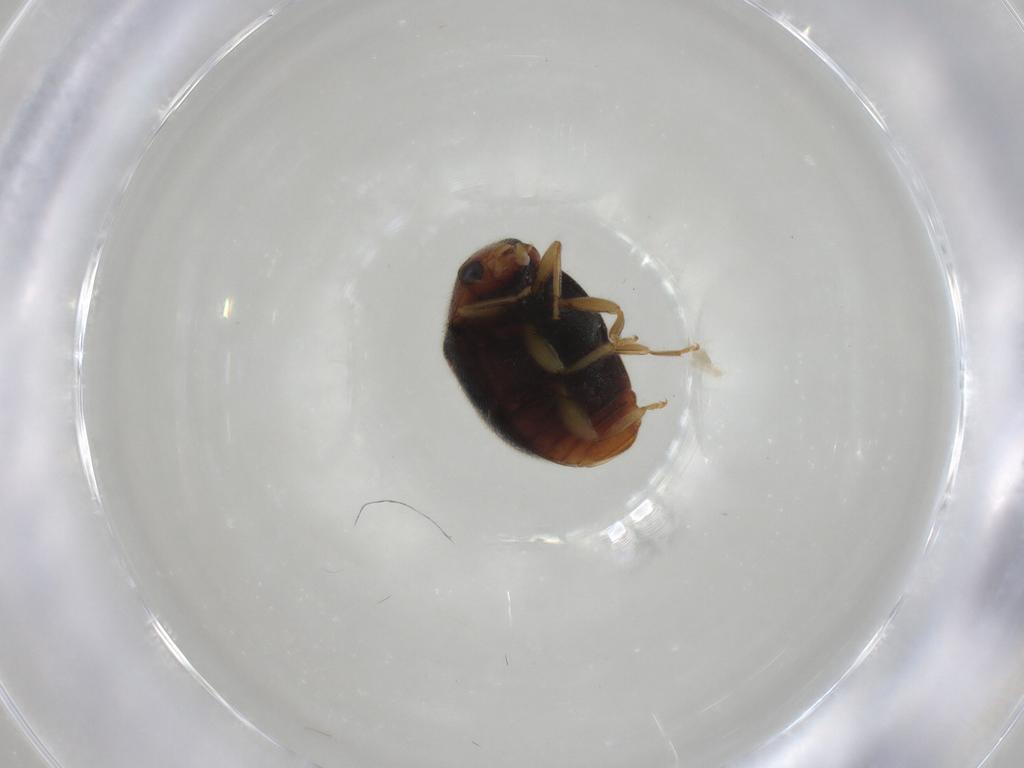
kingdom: Animalia
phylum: Arthropoda
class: Insecta
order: Coleoptera
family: Coccinellidae
